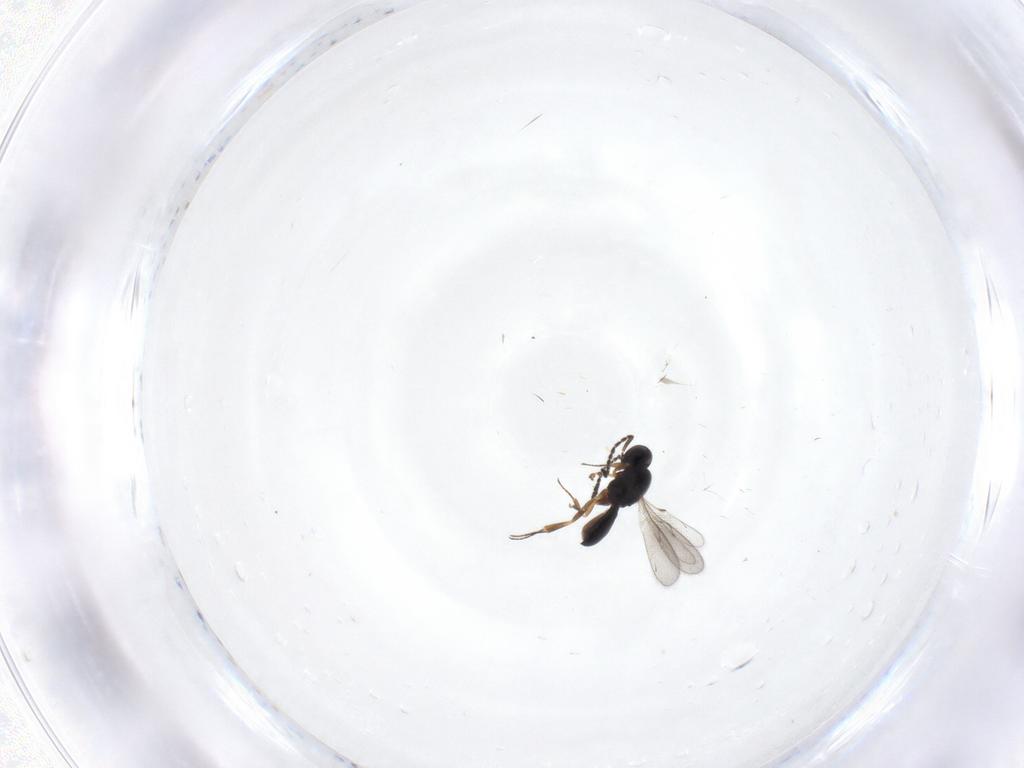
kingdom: Animalia
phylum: Arthropoda
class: Insecta
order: Hymenoptera
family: Scelionidae
